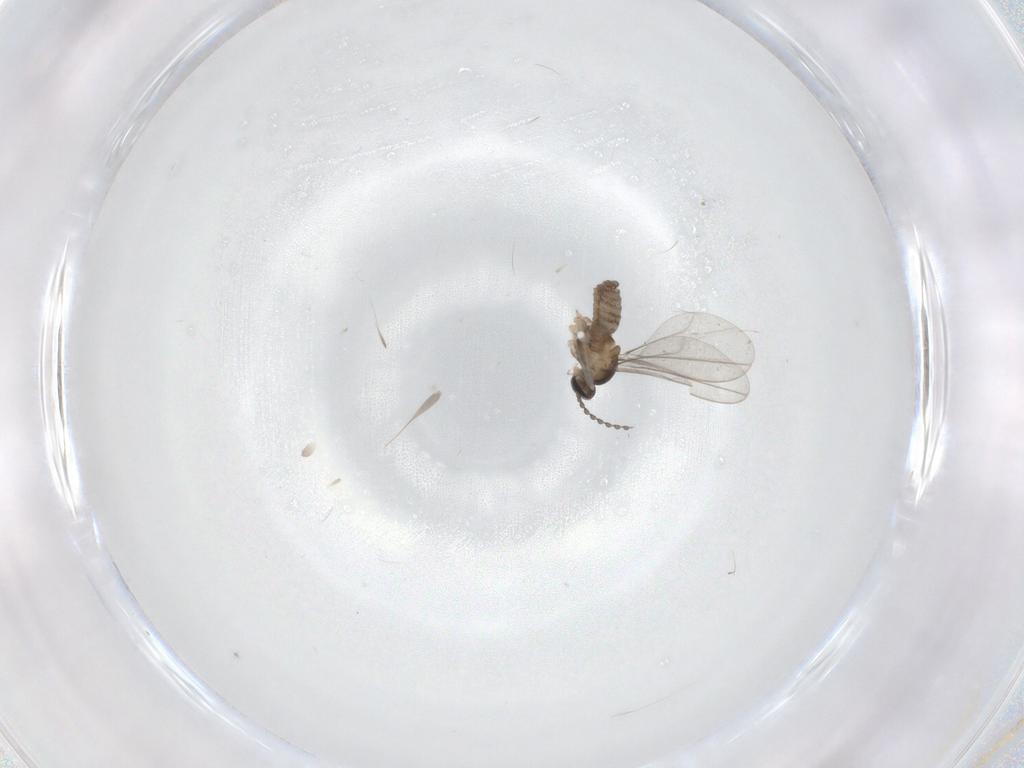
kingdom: Animalia
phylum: Arthropoda
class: Insecta
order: Diptera
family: Cecidomyiidae
